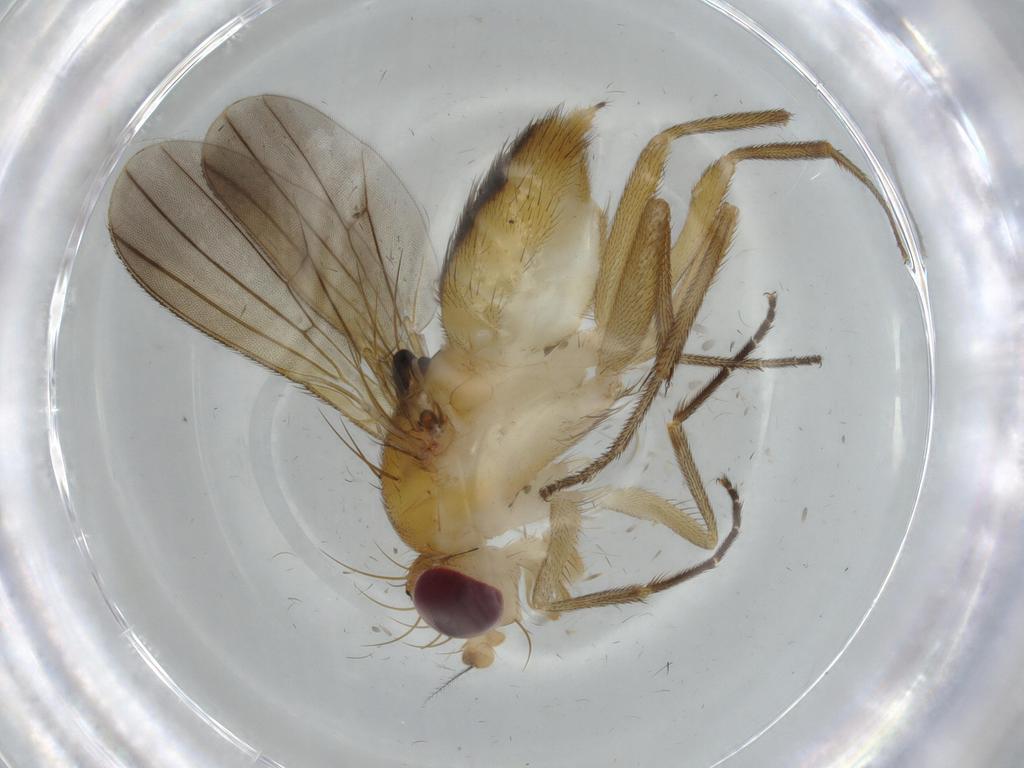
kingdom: Animalia
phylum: Arthropoda
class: Insecta
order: Diptera
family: Clusiidae
